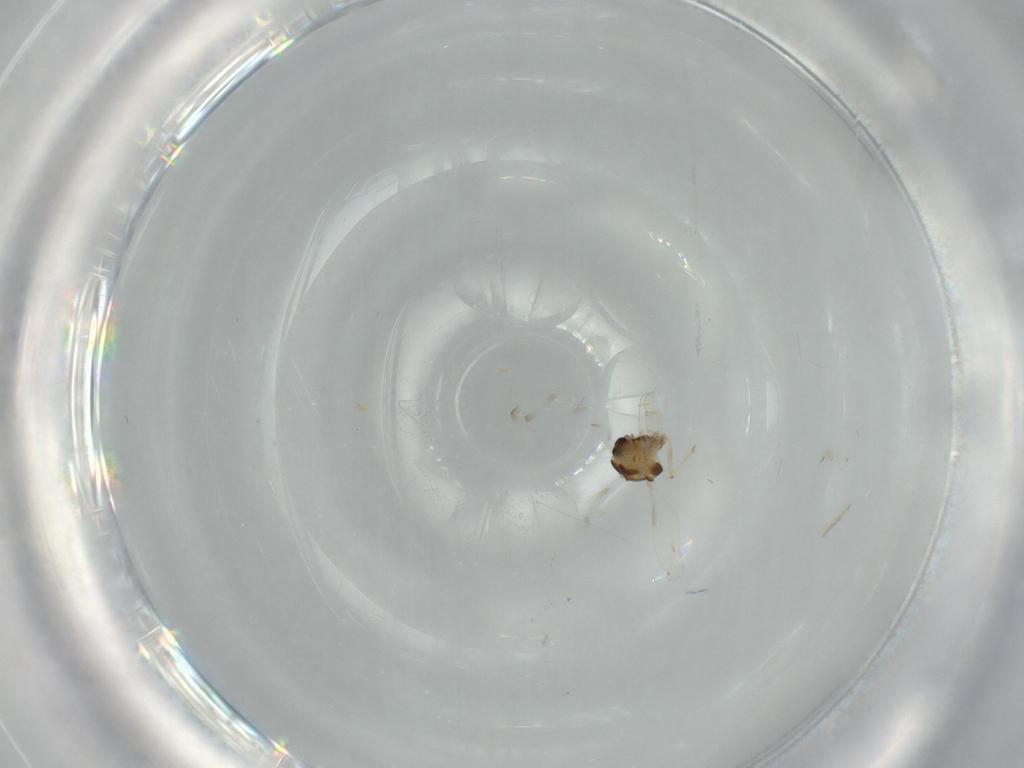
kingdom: Animalia
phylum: Arthropoda
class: Insecta
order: Diptera
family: Chironomidae
